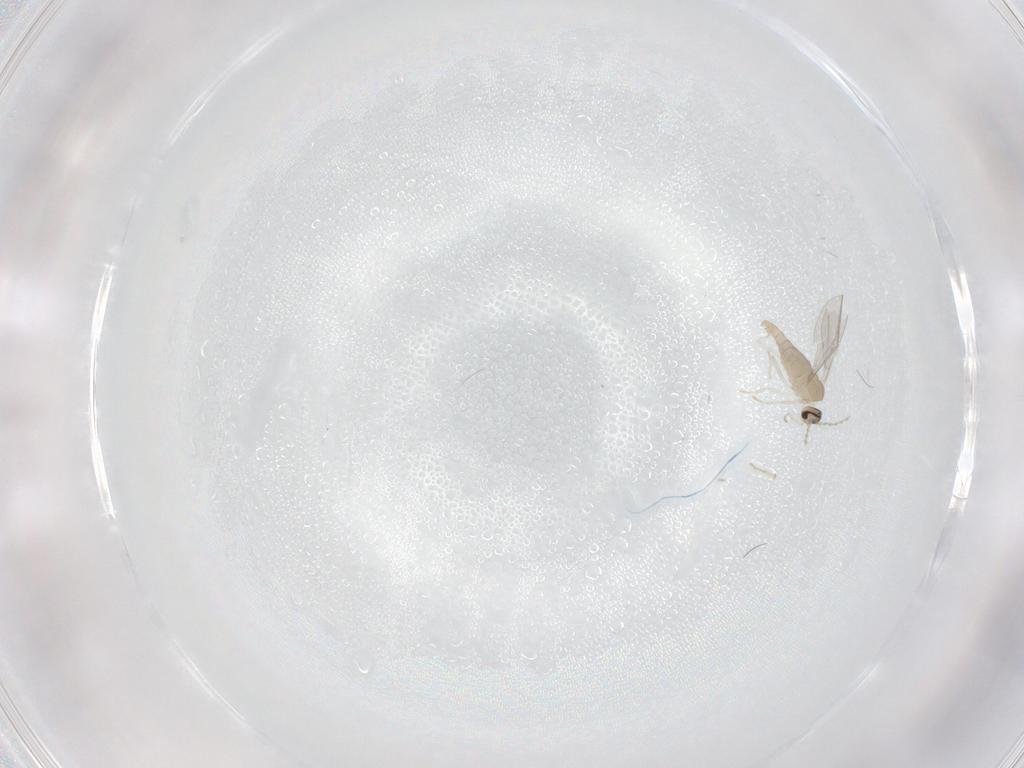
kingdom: Animalia
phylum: Arthropoda
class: Insecta
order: Diptera
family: Cecidomyiidae
